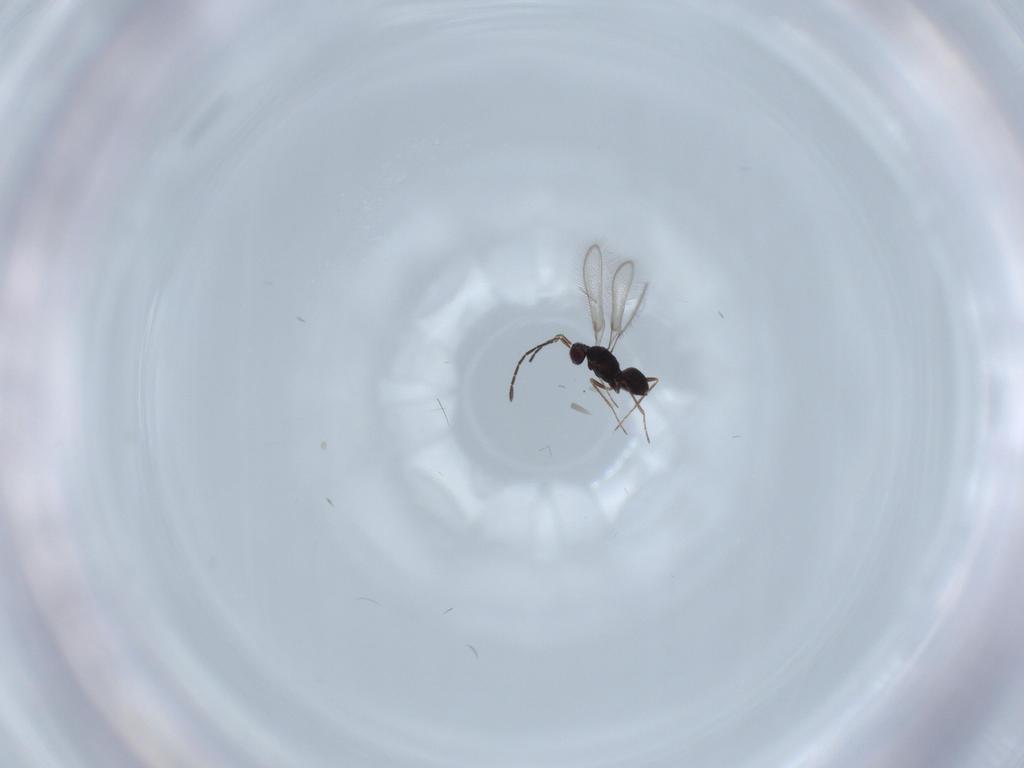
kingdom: Animalia
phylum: Arthropoda
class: Insecta
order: Hymenoptera
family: Mymaridae
